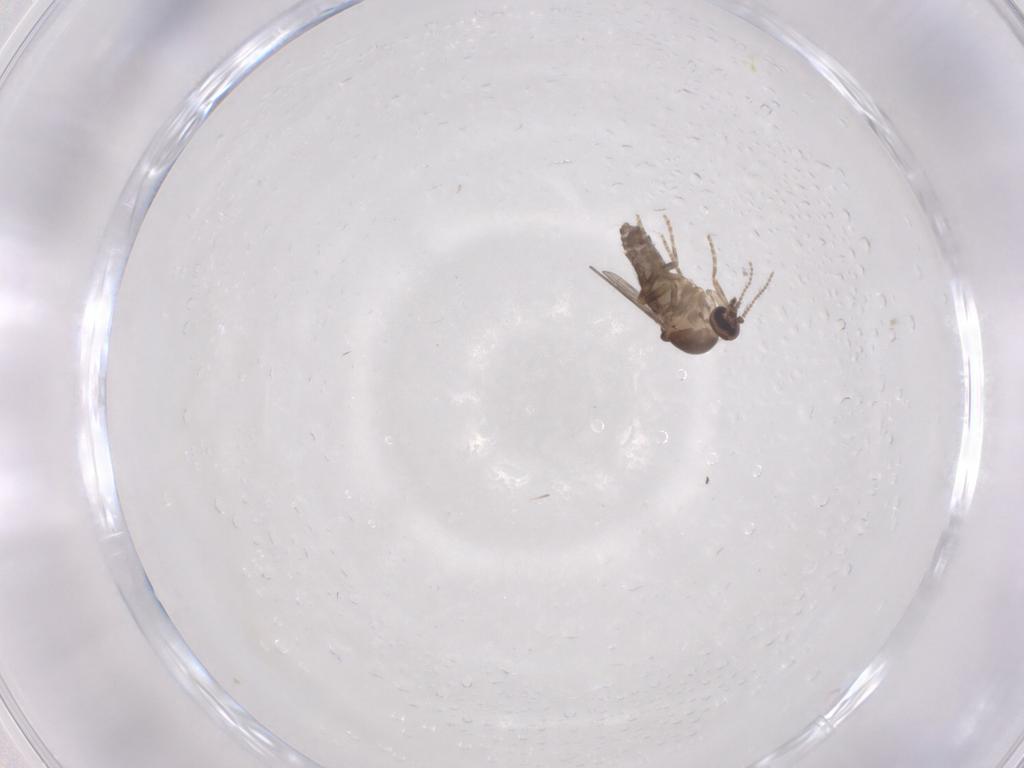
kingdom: Animalia
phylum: Arthropoda
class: Insecta
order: Diptera
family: Ceratopogonidae
